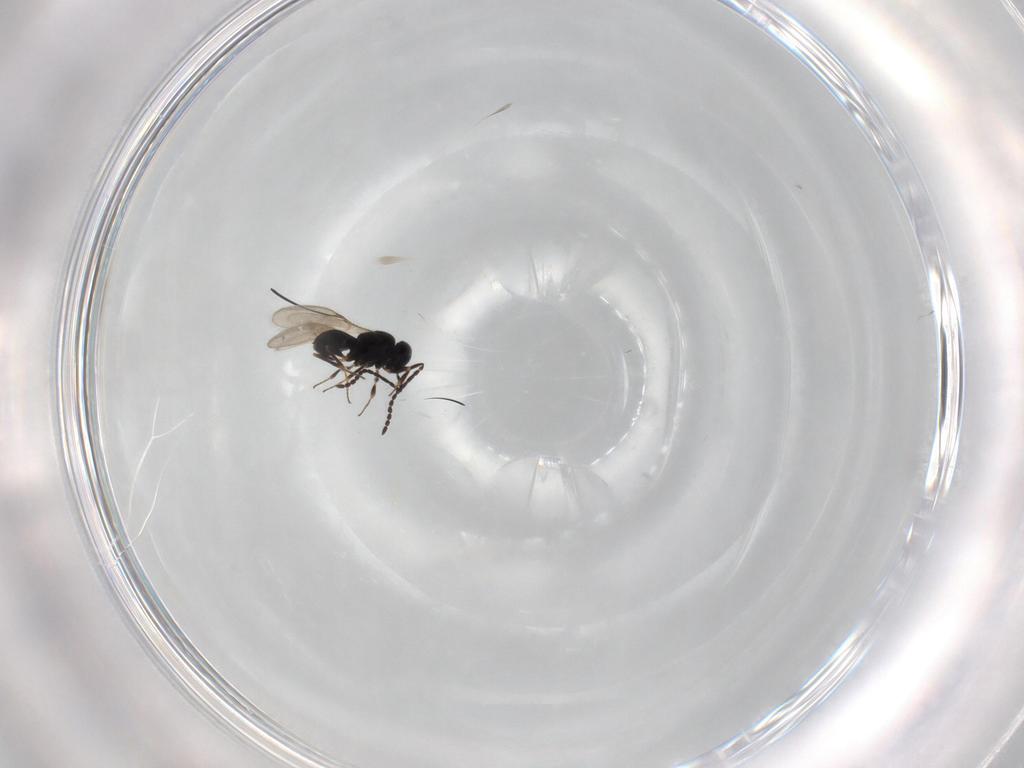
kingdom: Animalia
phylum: Arthropoda
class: Insecta
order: Hymenoptera
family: Scelionidae
